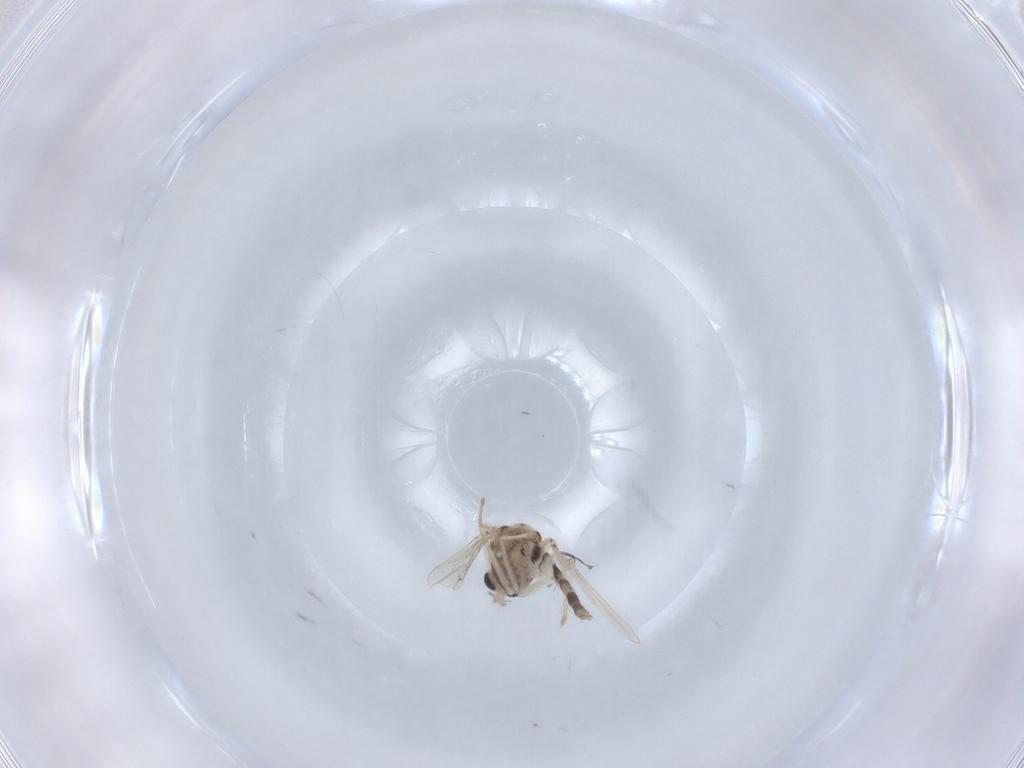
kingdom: Animalia
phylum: Arthropoda
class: Insecta
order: Diptera
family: Chironomidae
